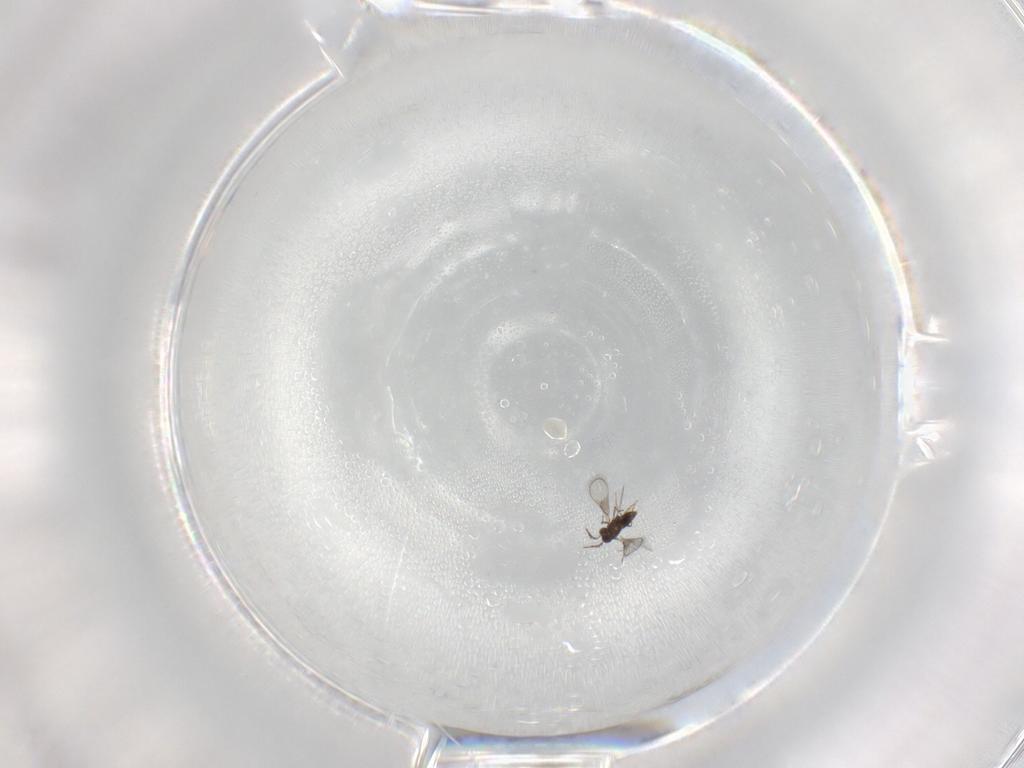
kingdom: Animalia
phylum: Arthropoda
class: Insecta
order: Hymenoptera
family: Trichogrammatidae
